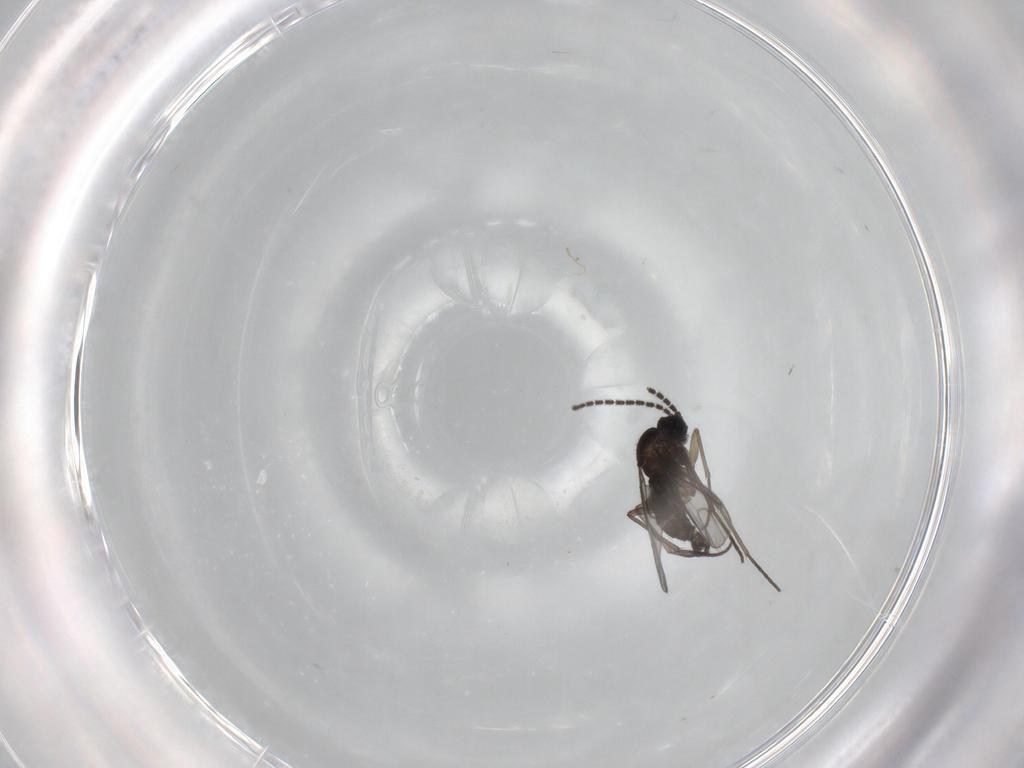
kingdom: Animalia
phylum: Arthropoda
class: Insecta
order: Diptera
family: Sciaridae
